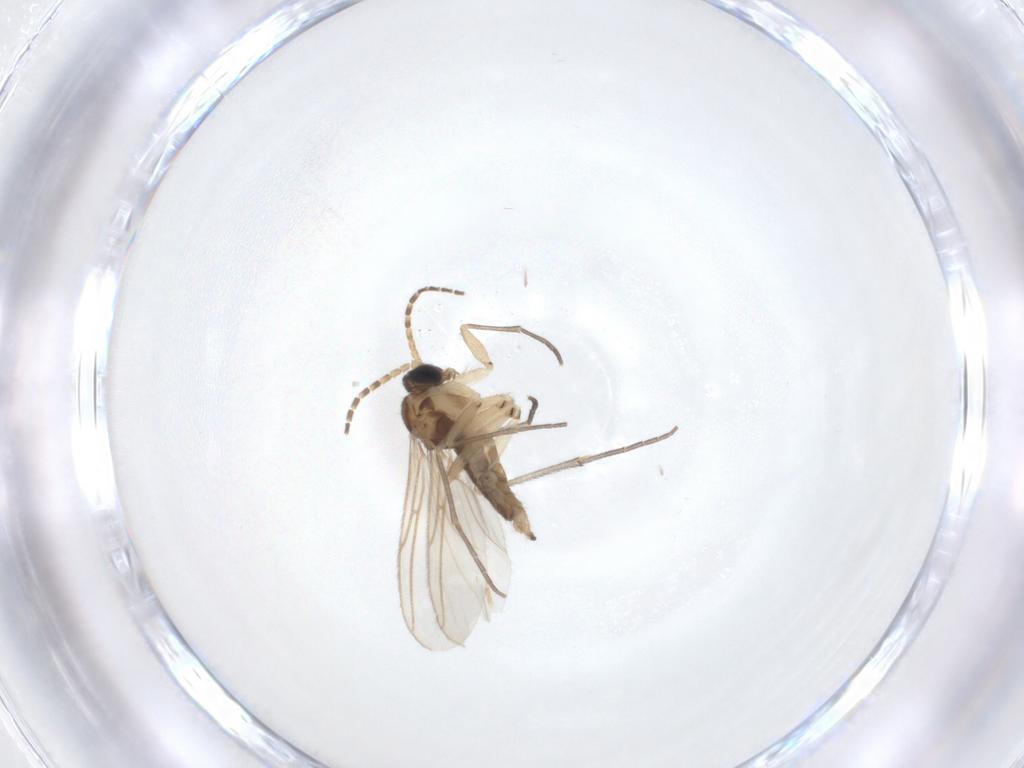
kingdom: Animalia
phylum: Arthropoda
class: Insecta
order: Diptera
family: Sciaridae
